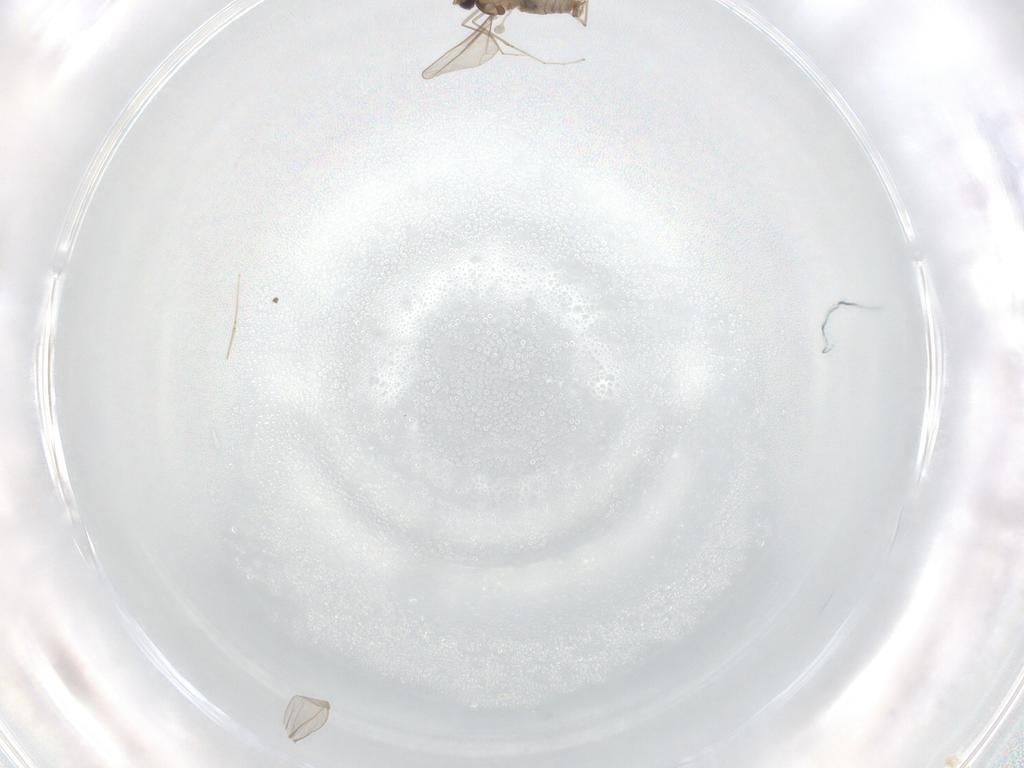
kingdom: Animalia
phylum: Arthropoda
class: Insecta
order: Diptera
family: Cecidomyiidae
